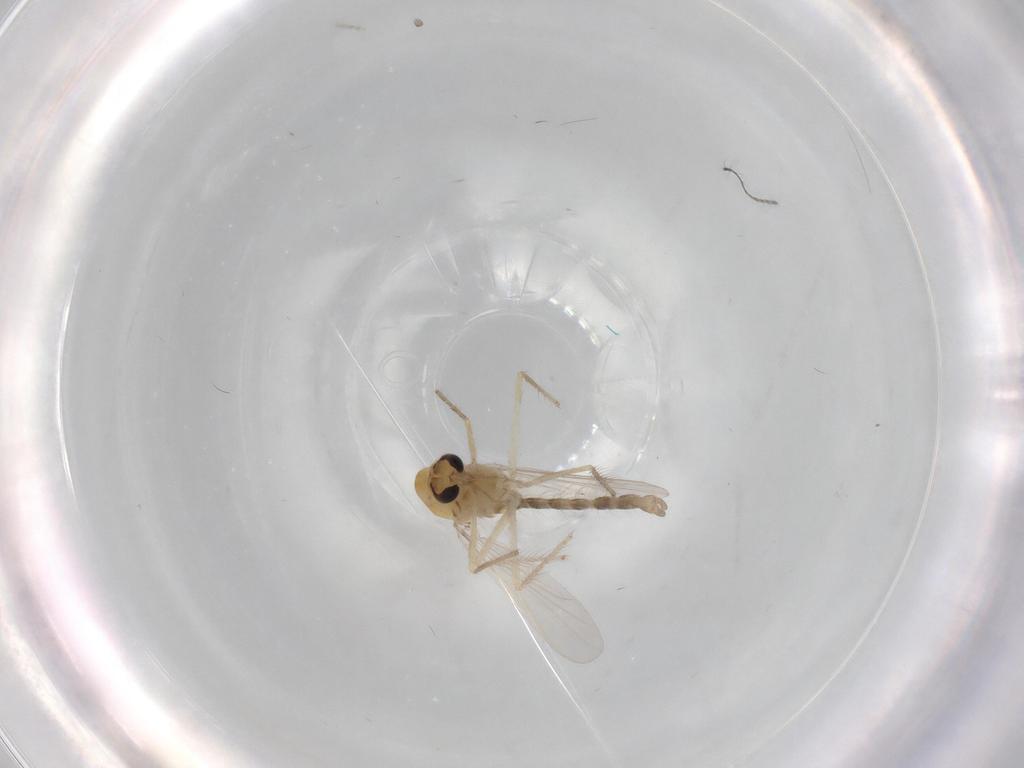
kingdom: Animalia
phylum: Arthropoda
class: Insecta
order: Diptera
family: Chironomidae
